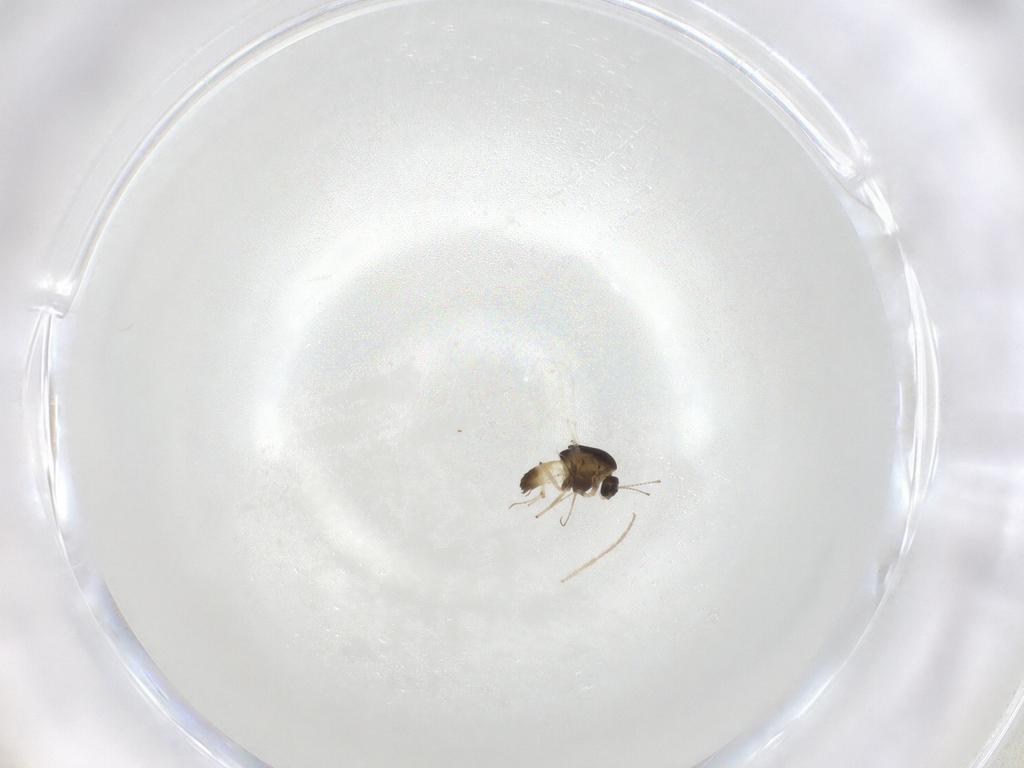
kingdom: Animalia
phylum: Arthropoda
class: Insecta
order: Diptera
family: Chironomidae
